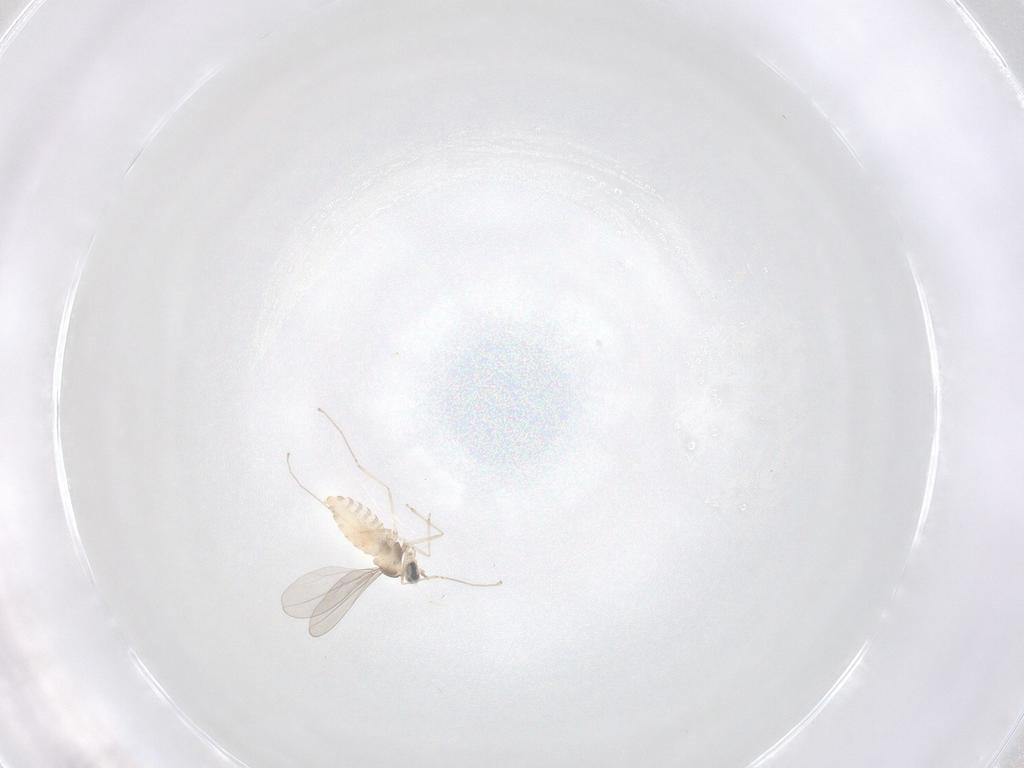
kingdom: Animalia
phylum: Arthropoda
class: Insecta
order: Diptera
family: Cecidomyiidae
